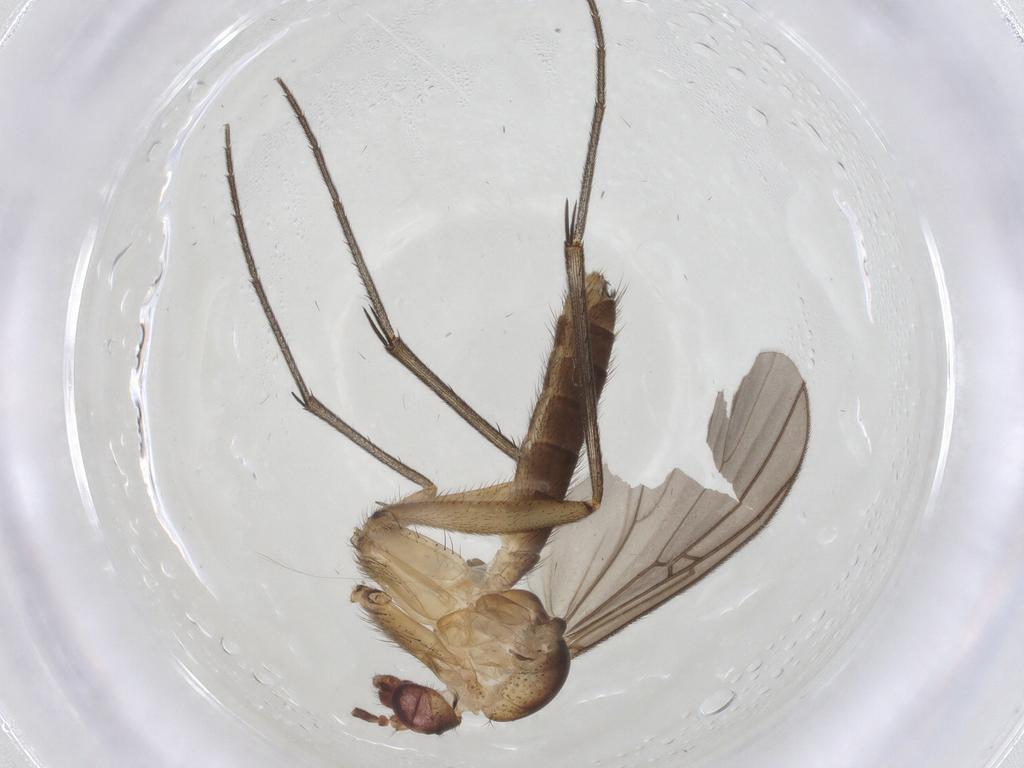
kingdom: Animalia
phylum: Arthropoda
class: Insecta
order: Diptera
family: Mycetophilidae
